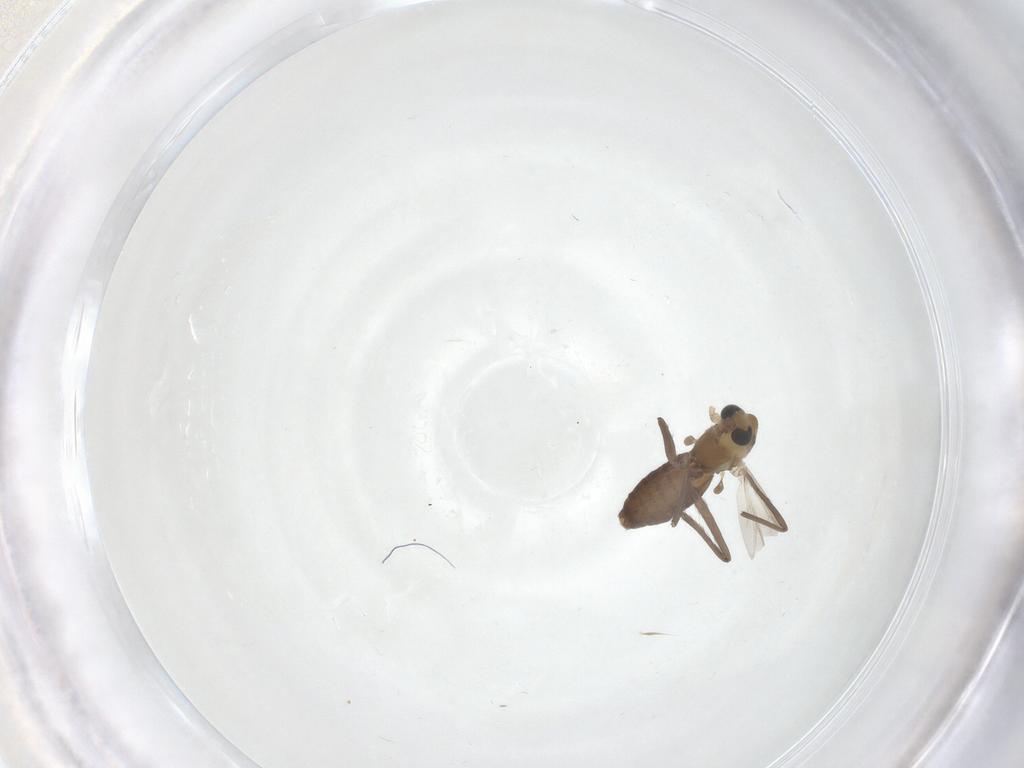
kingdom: Animalia
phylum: Arthropoda
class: Insecta
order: Diptera
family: Chironomidae
